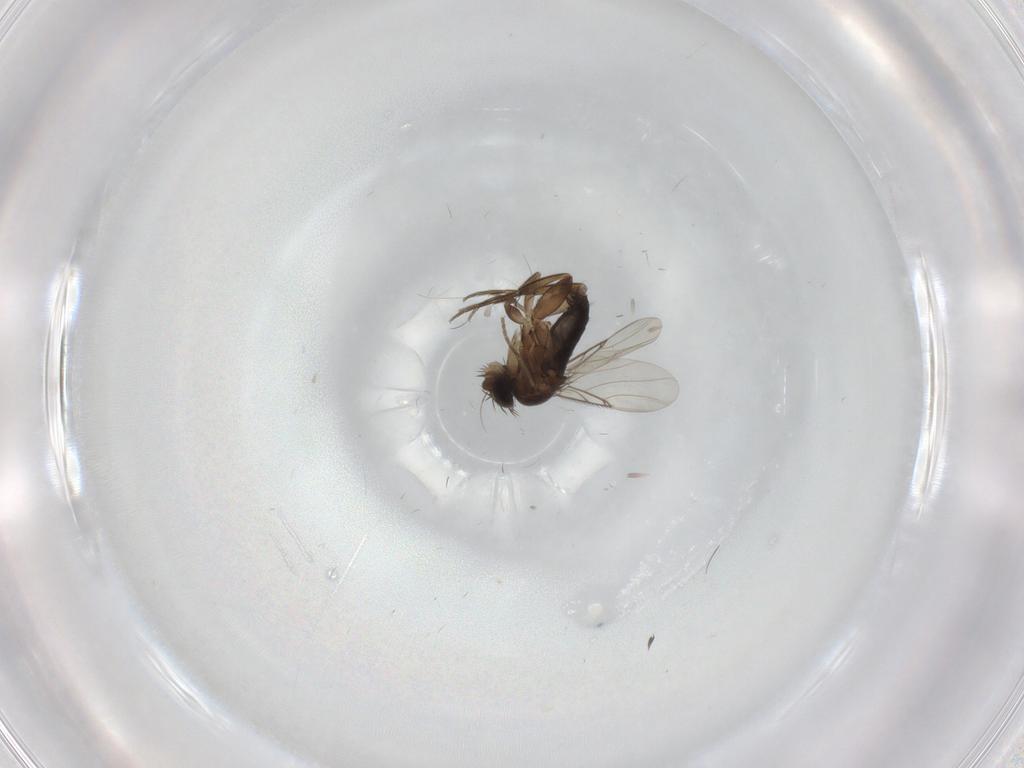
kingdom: Animalia
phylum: Arthropoda
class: Insecta
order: Diptera
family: Phoridae
